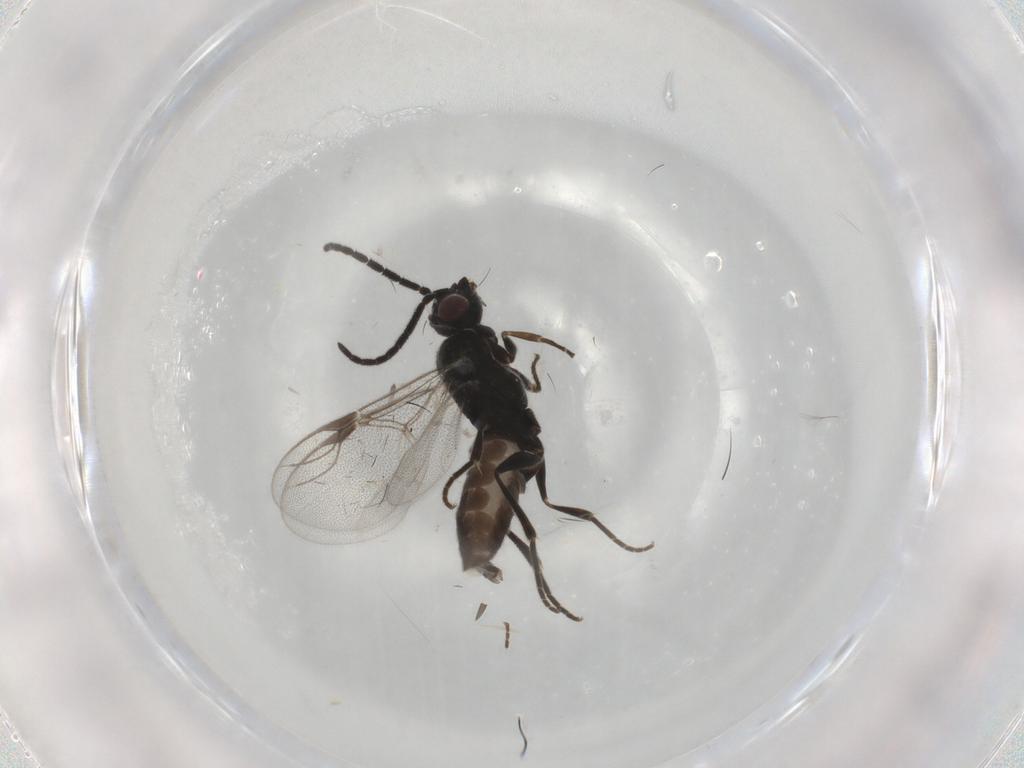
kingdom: Animalia
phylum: Arthropoda
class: Insecta
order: Hymenoptera
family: Dryinidae
